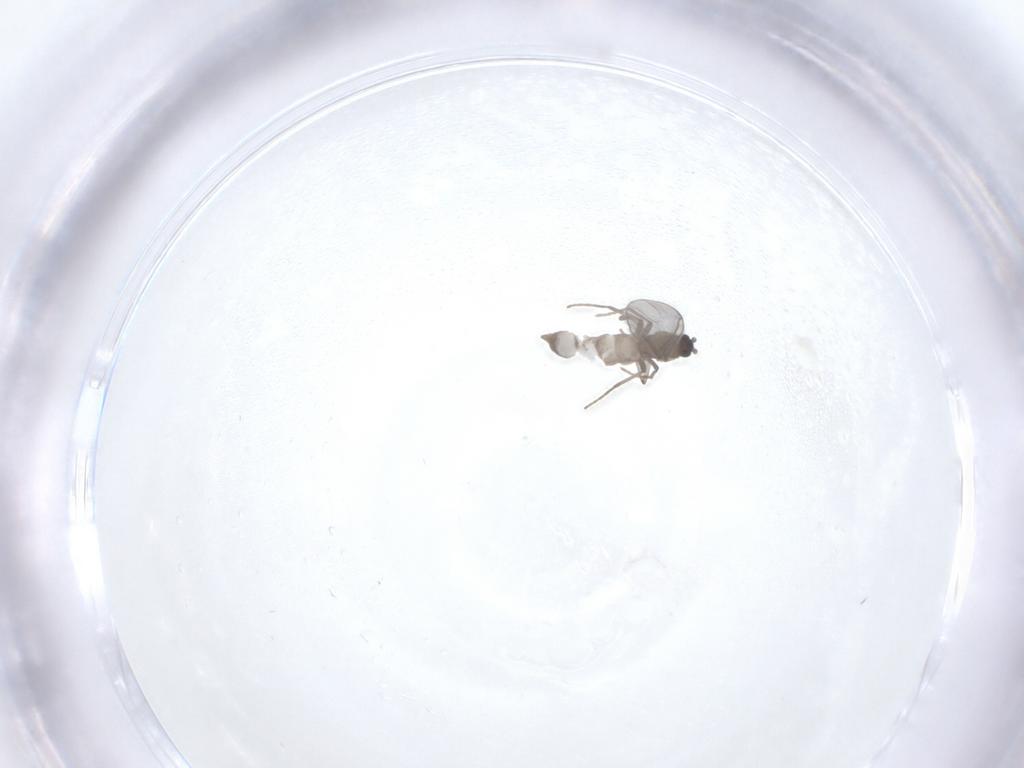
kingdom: Animalia
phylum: Arthropoda
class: Insecta
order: Diptera
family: Sciaridae
